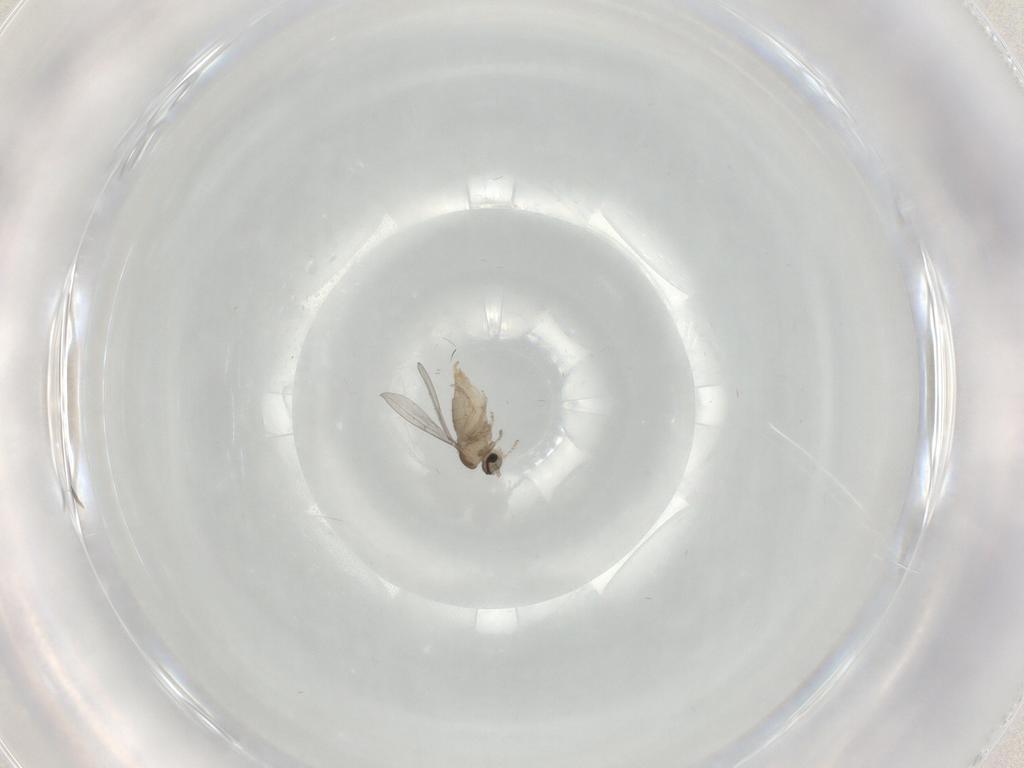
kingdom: Animalia
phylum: Arthropoda
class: Insecta
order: Diptera
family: Cecidomyiidae
